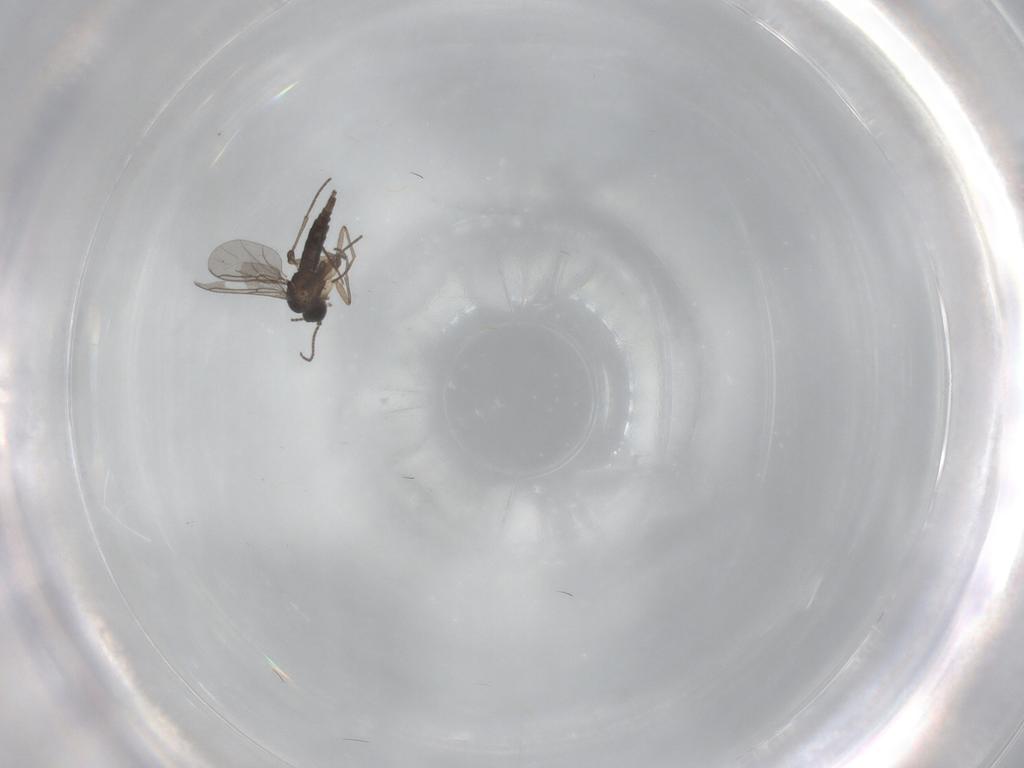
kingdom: Animalia
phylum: Arthropoda
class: Insecta
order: Diptera
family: Sciaridae
